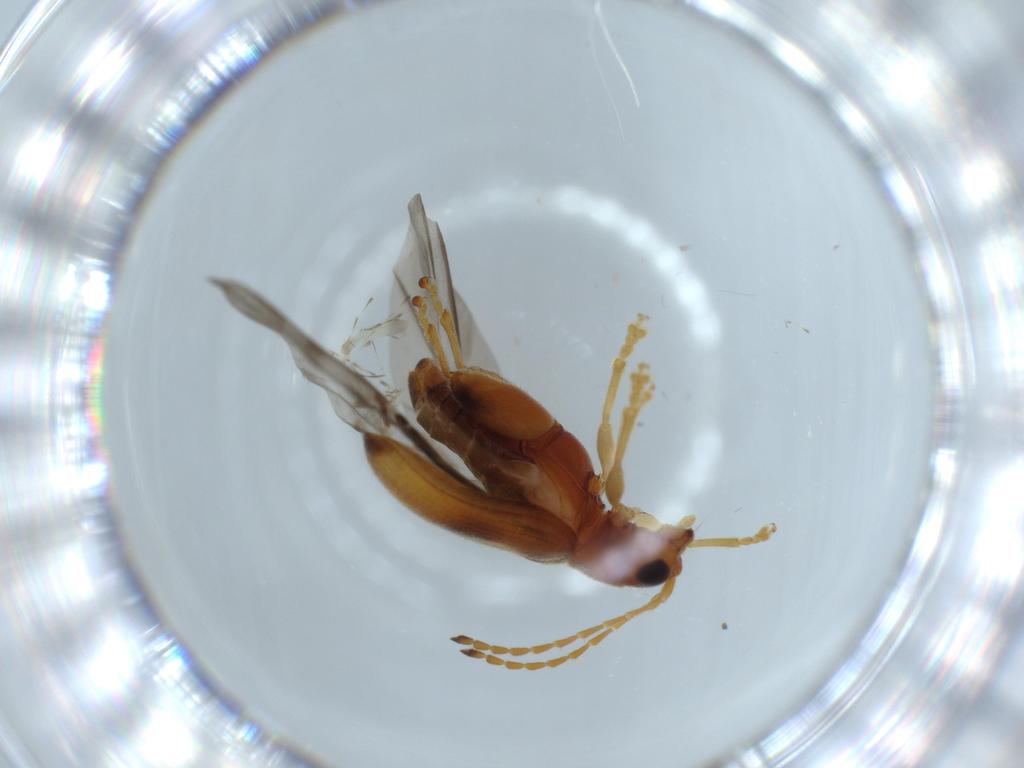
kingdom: Animalia
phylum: Arthropoda
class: Insecta
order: Coleoptera
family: Chrysomelidae
